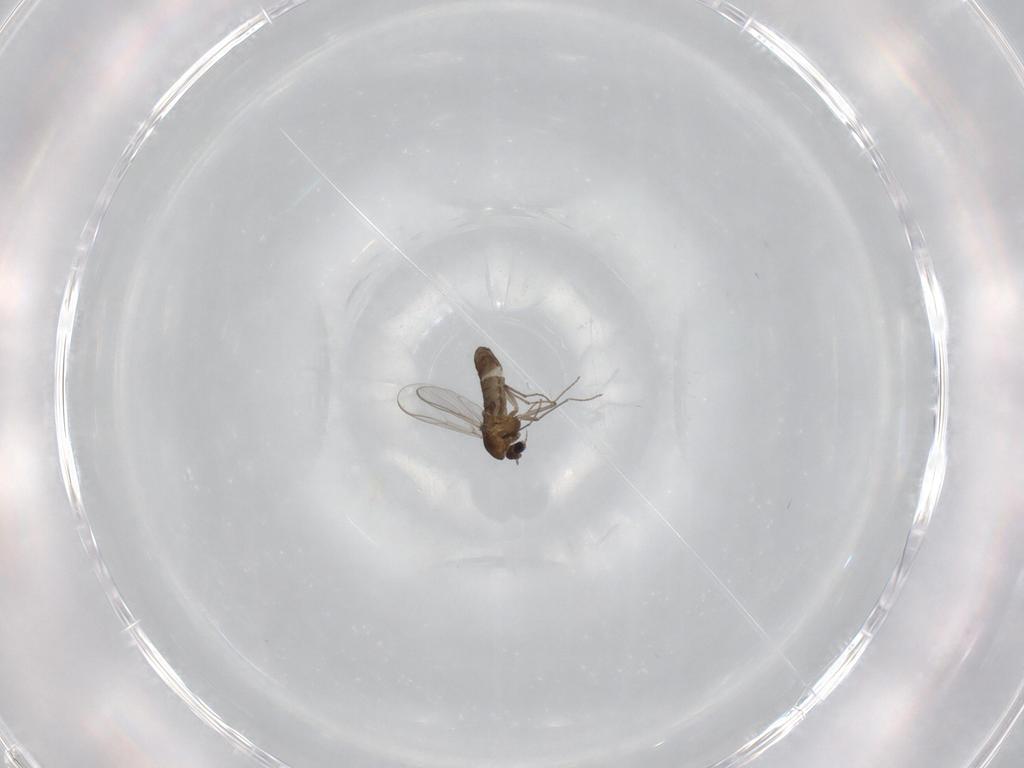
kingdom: Animalia
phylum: Arthropoda
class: Insecta
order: Diptera
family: Chironomidae
